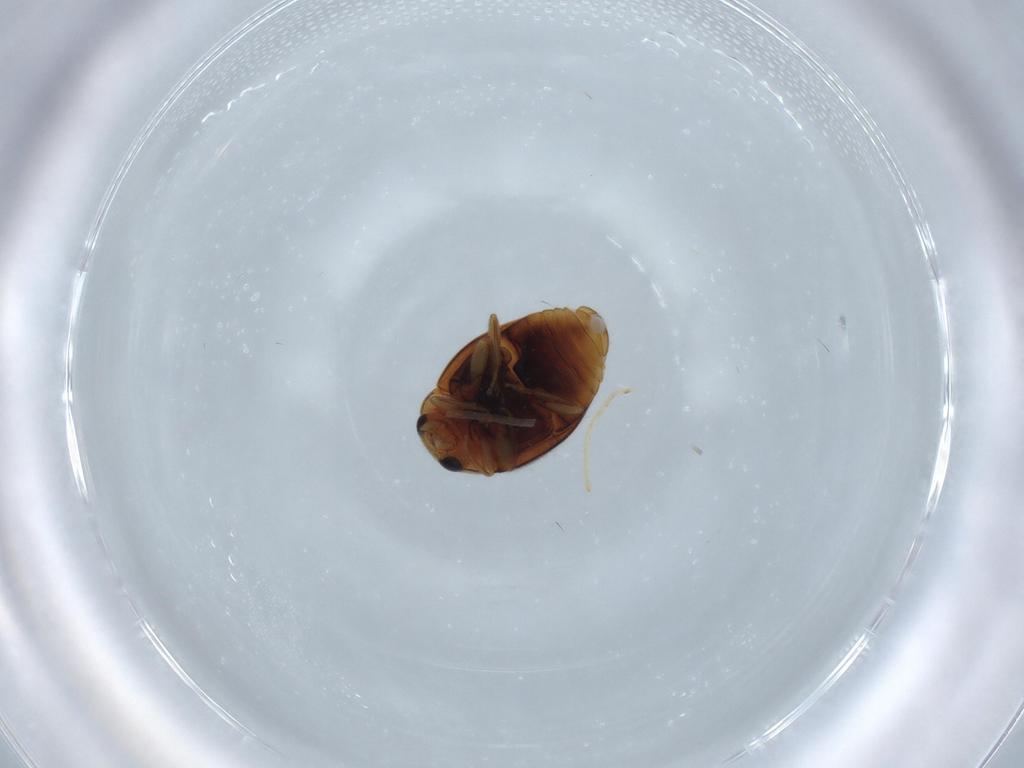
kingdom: Animalia
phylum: Arthropoda
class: Insecta
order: Coleoptera
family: Coccinellidae
